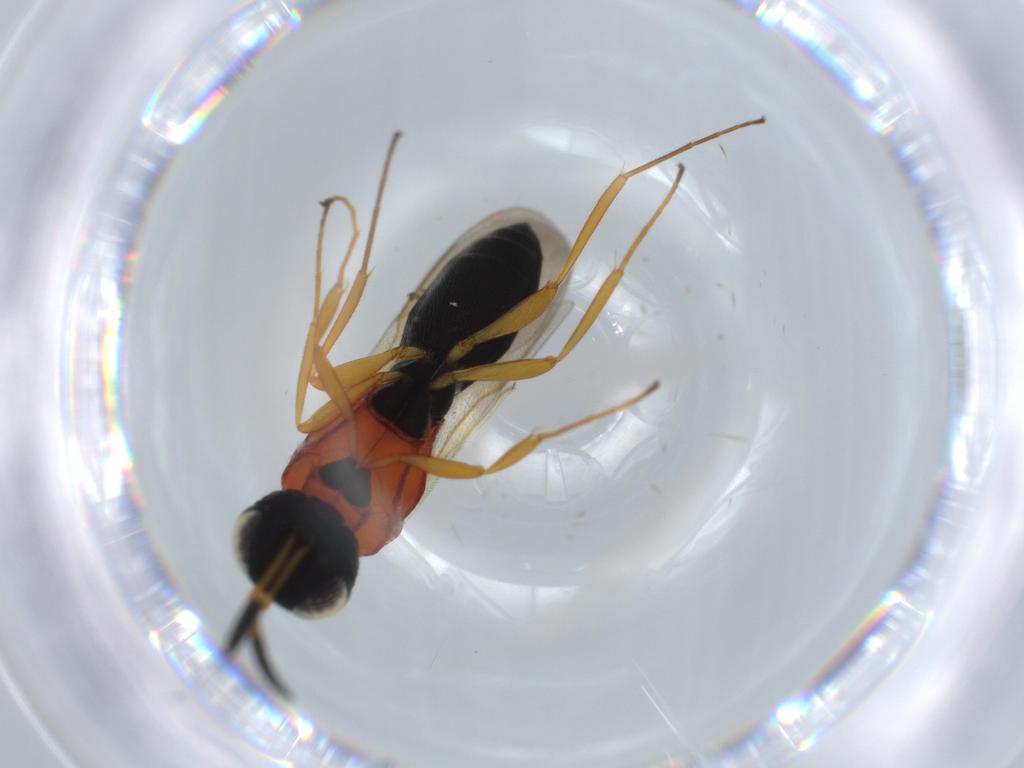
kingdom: Animalia
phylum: Arthropoda
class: Insecta
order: Hymenoptera
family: Scelionidae
